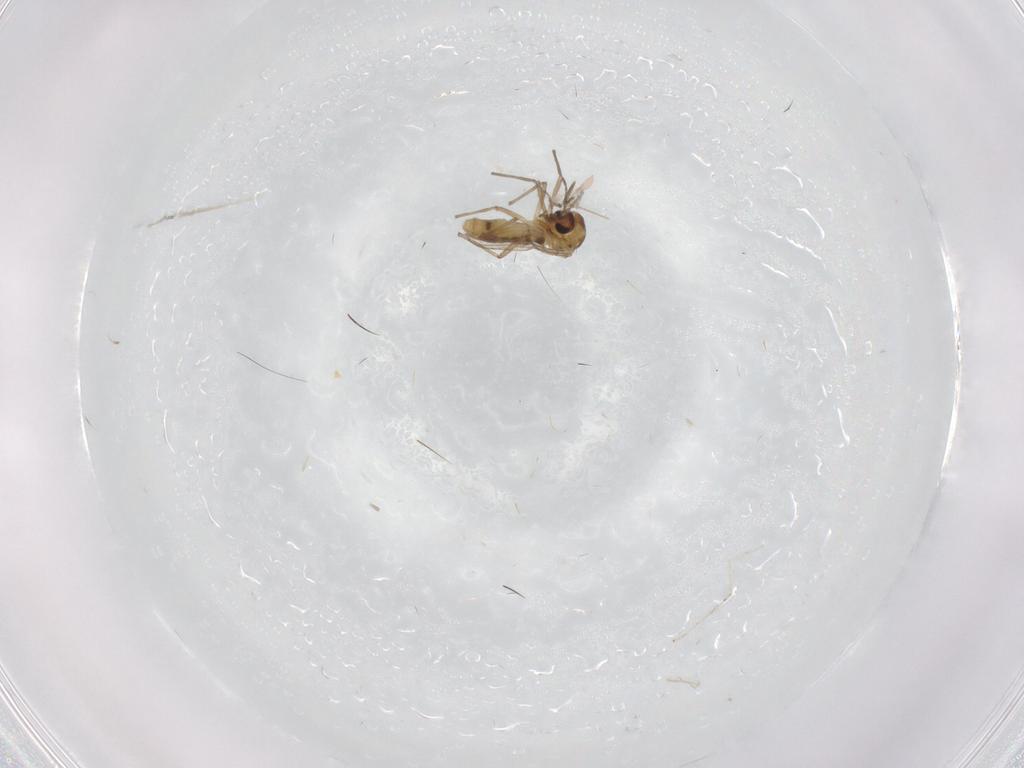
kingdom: Animalia
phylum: Arthropoda
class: Insecta
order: Diptera
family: Cecidomyiidae
